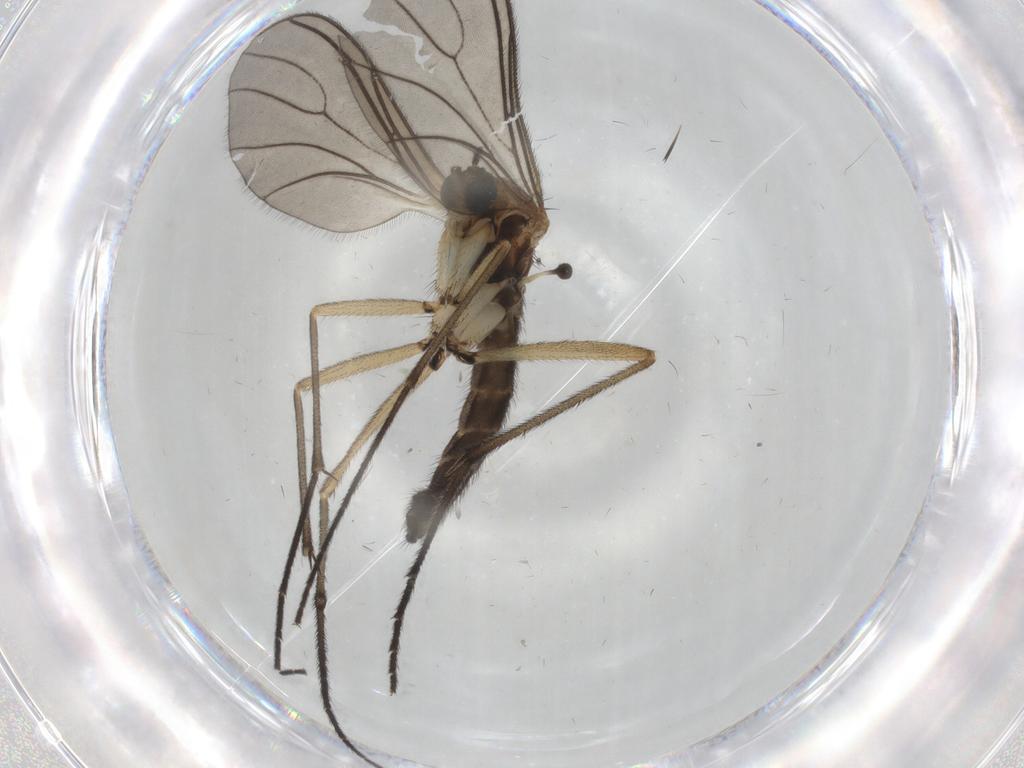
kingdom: Animalia
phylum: Arthropoda
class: Insecta
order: Diptera
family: Sciaridae
